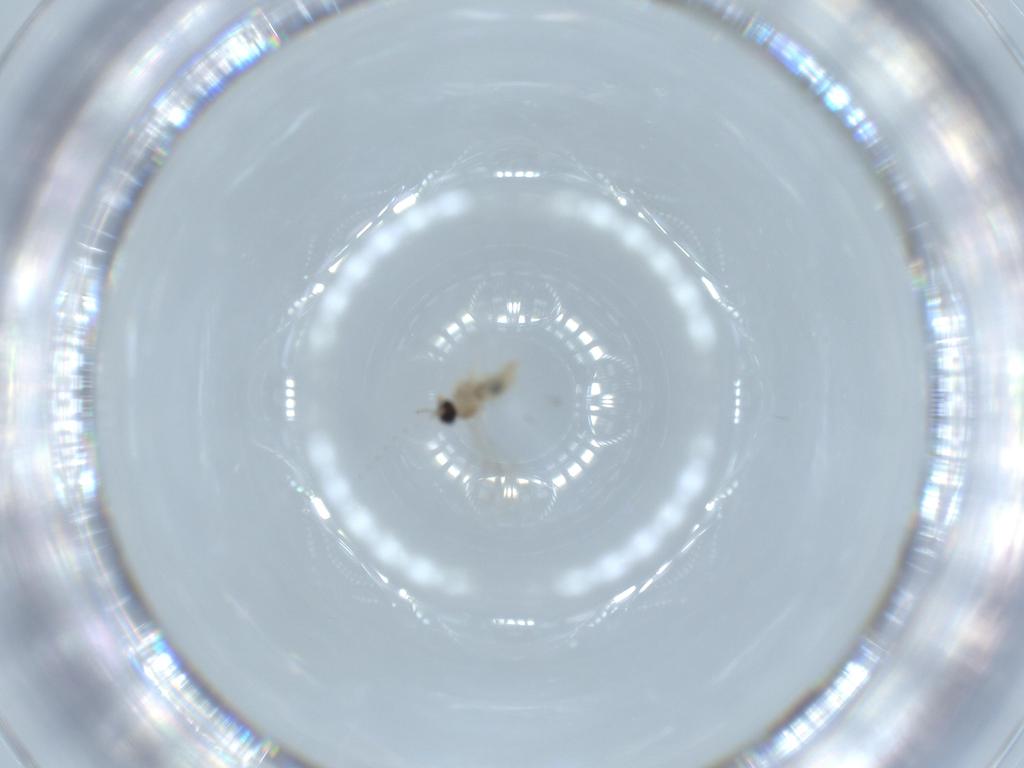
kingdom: Animalia
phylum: Arthropoda
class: Insecta
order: Diptera
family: Cecidomyiidae
